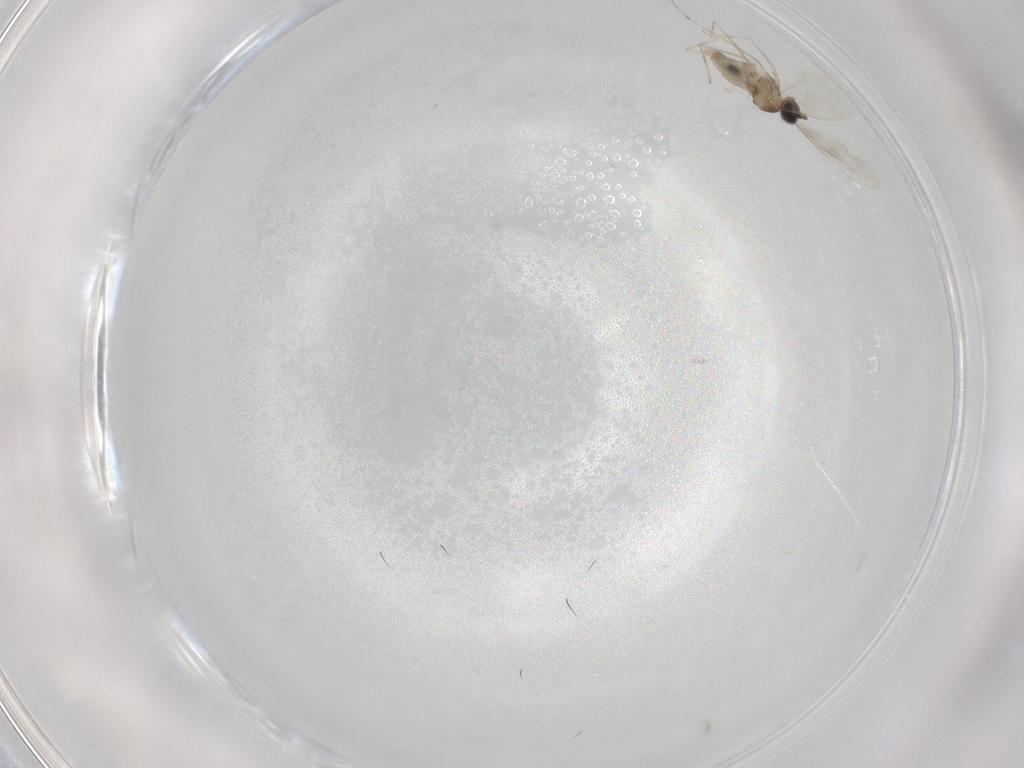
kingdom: Animalia
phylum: Arthropoda
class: Insecta
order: Diptera
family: Cecidomyiidae
